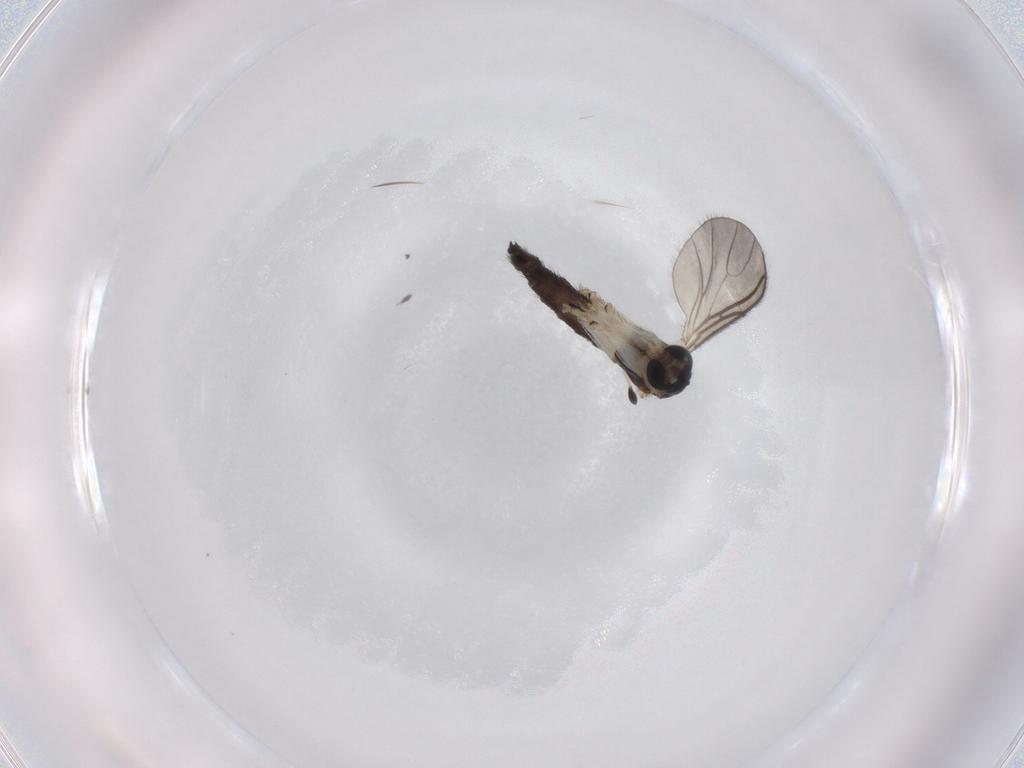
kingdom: Animalia
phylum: Arthropoda
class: Insecta
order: Diptera
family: Sciaridae
